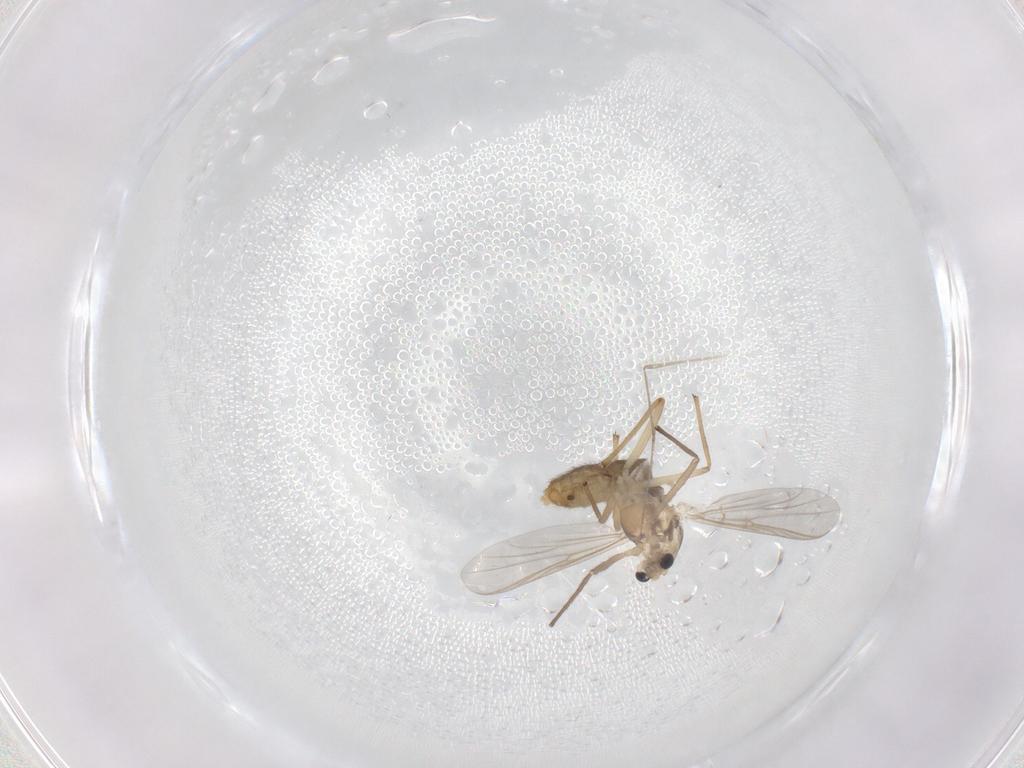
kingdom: Animalia
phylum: Arthropoda
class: Insecta
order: Diptera
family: Chironomidae
